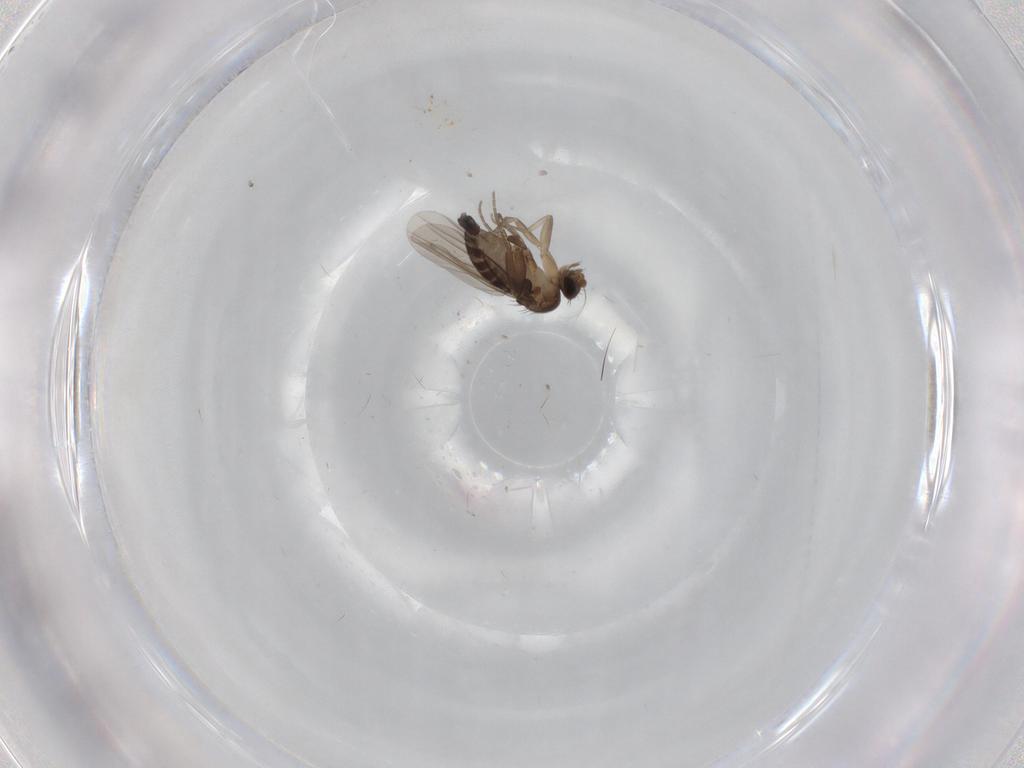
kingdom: Animalia
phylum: Arthropoda
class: Insecta
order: Diptera
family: Phoridae
